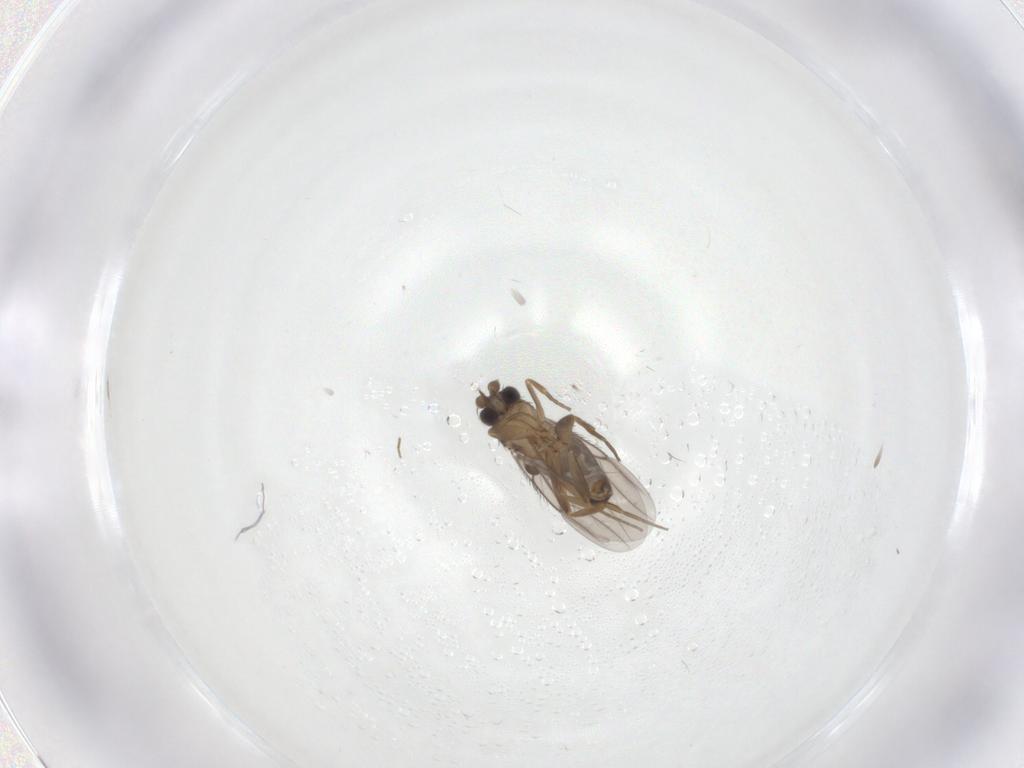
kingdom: Animalia
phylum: Arthropoda
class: Insecta
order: Diptera
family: Phoridae
